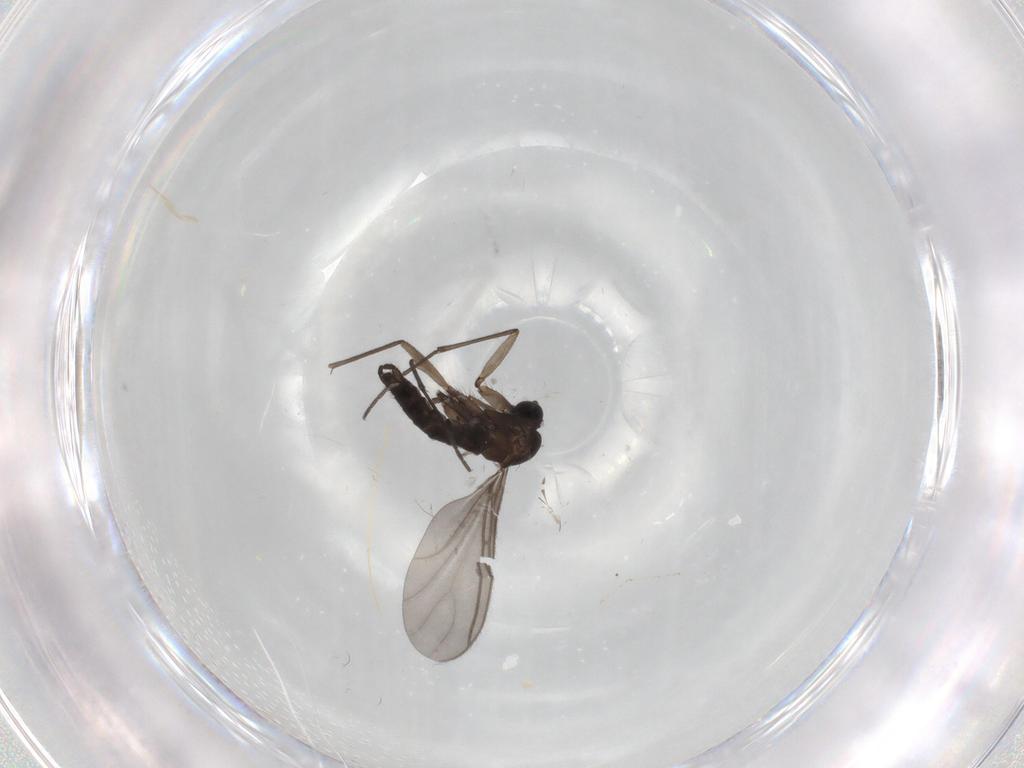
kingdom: Animalia
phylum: Arthropoda
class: Insecta
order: Diptera
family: Sciaridae
